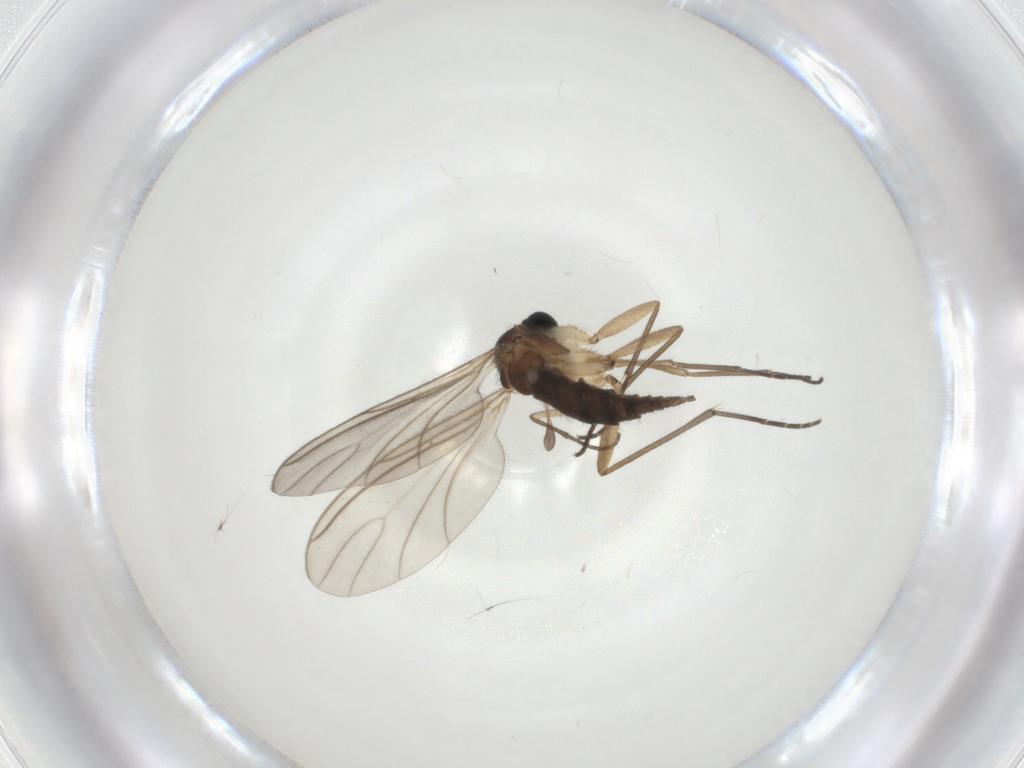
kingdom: Animalia
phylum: Arthropoda
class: Insecta
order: Diptera
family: Sciaridae
